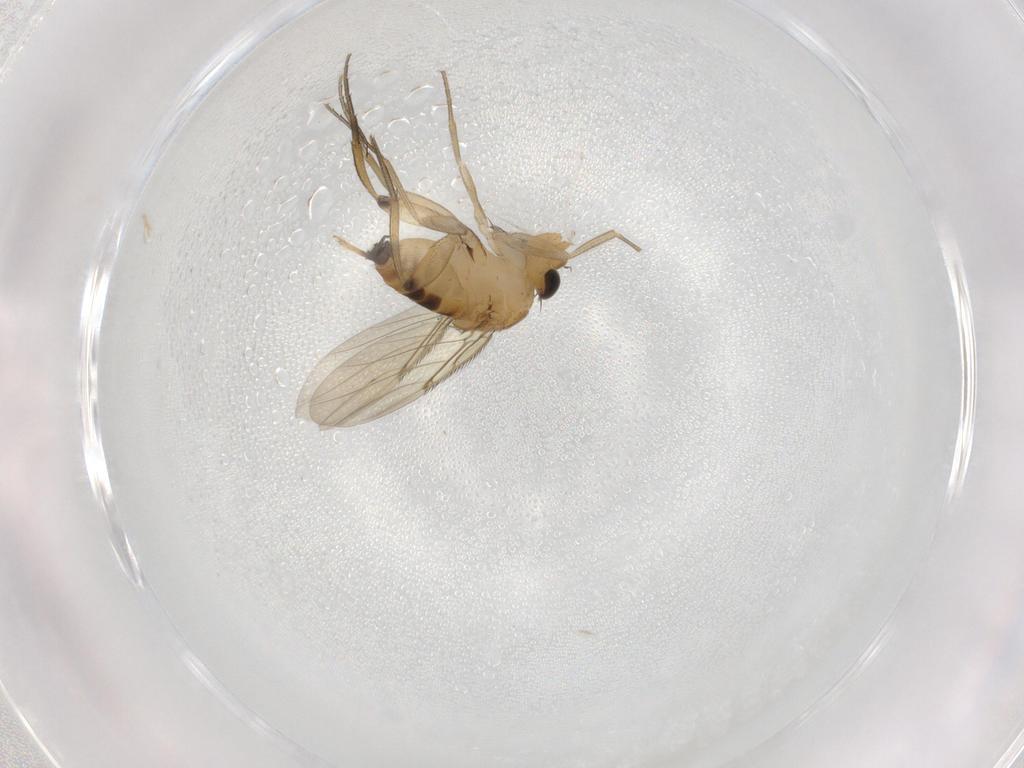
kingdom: Animalia
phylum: Arthropoda
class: Insecta
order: Diptera
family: Phoridae
